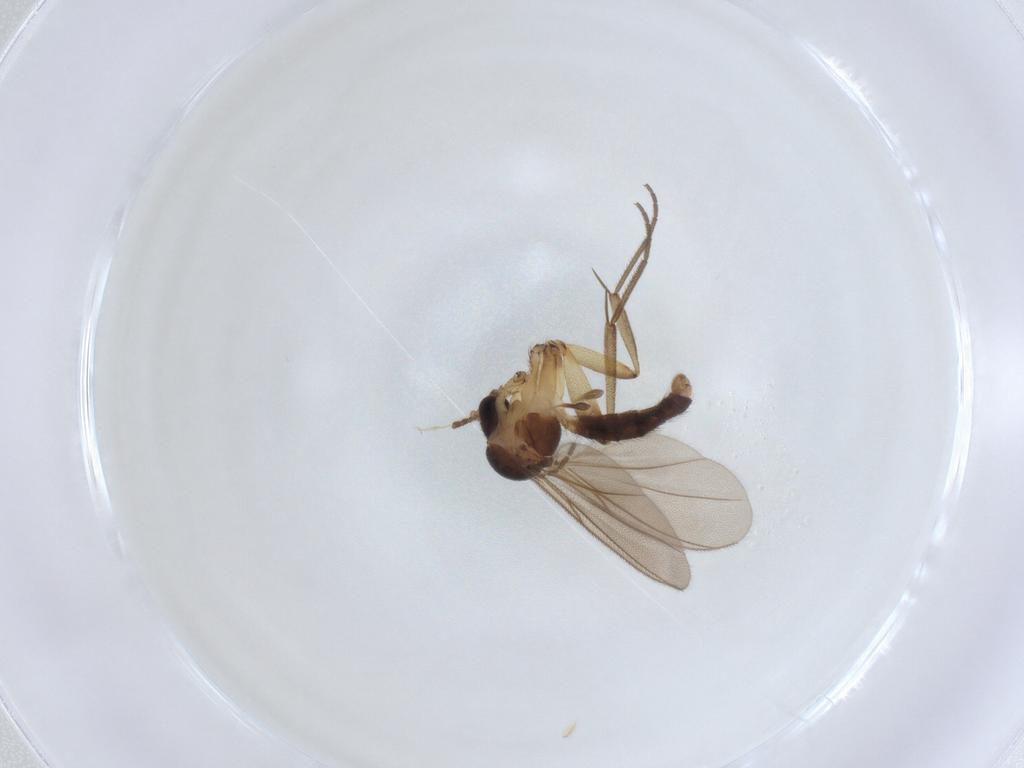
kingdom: Animalia
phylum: Arthropoda
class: Insecta
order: Diptera
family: Mycetophilidae
